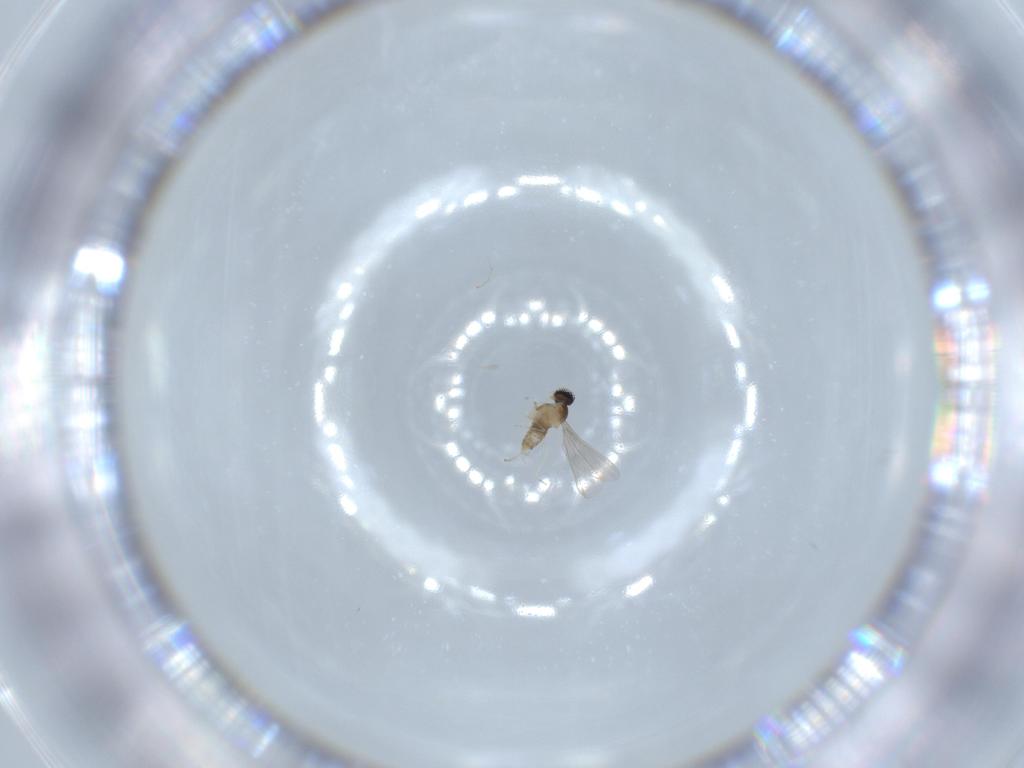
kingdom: Animalia
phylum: Arthropoda
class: Insecta
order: Diptera
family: Cecidomyiidae
